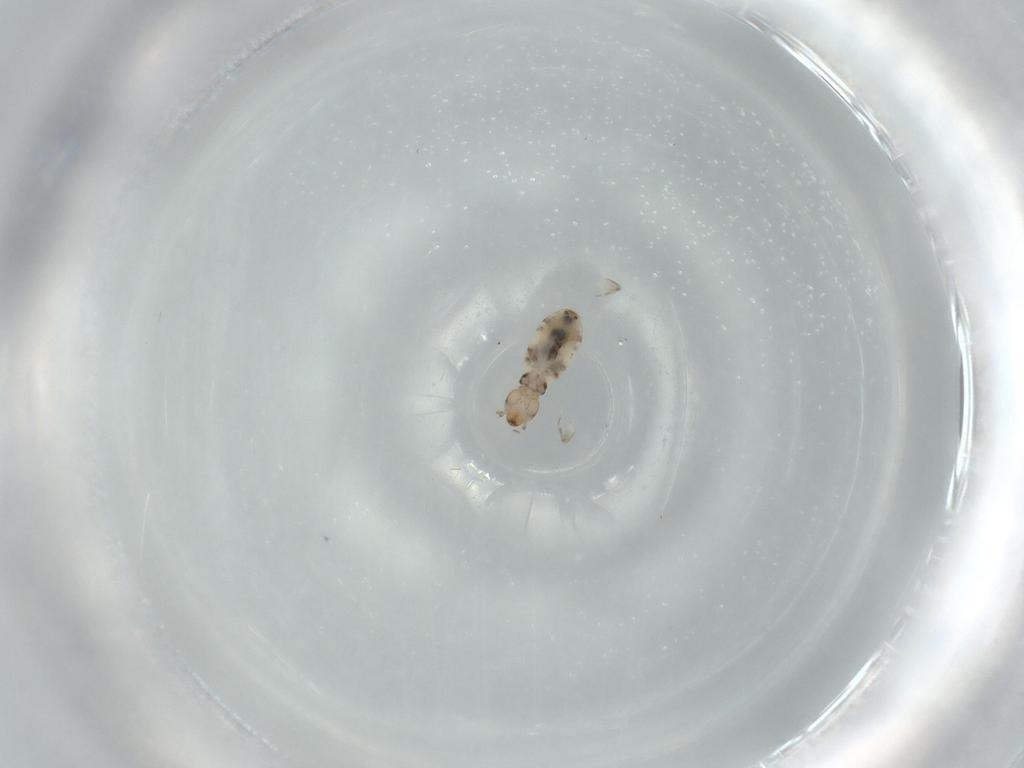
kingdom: Animalia
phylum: Arthropoda
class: Insecta
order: Psocodea
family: Liposcelididae
